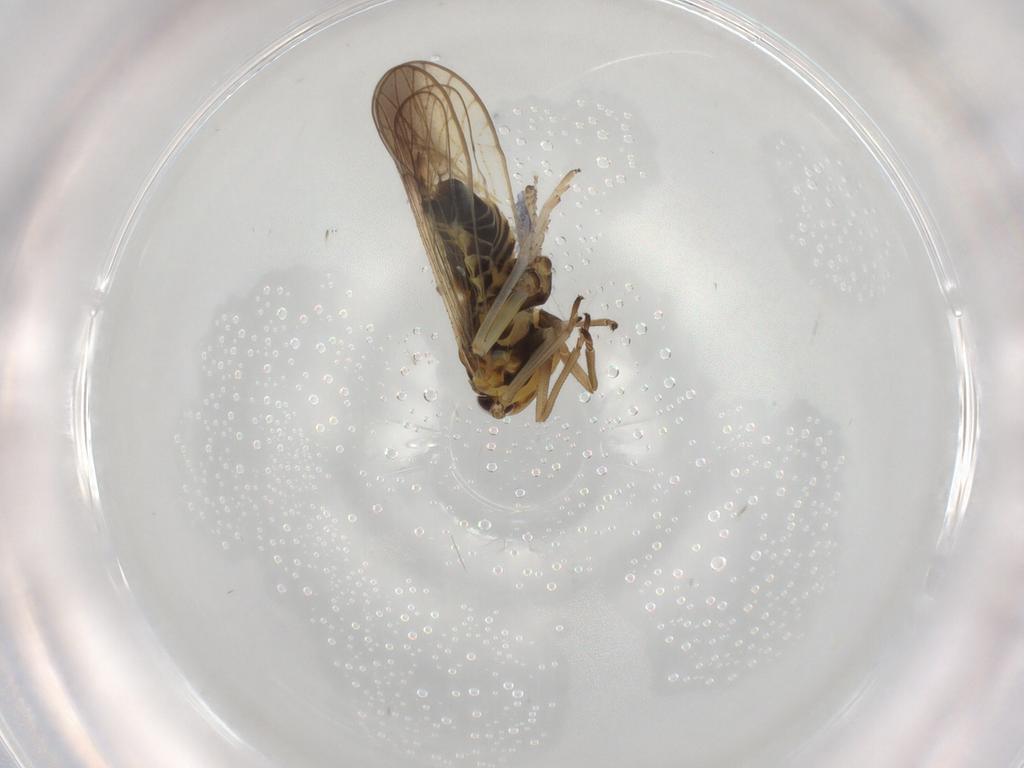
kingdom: Animalia
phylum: Arthropoda
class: Insecta
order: Hemiptera
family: Delphacidae
